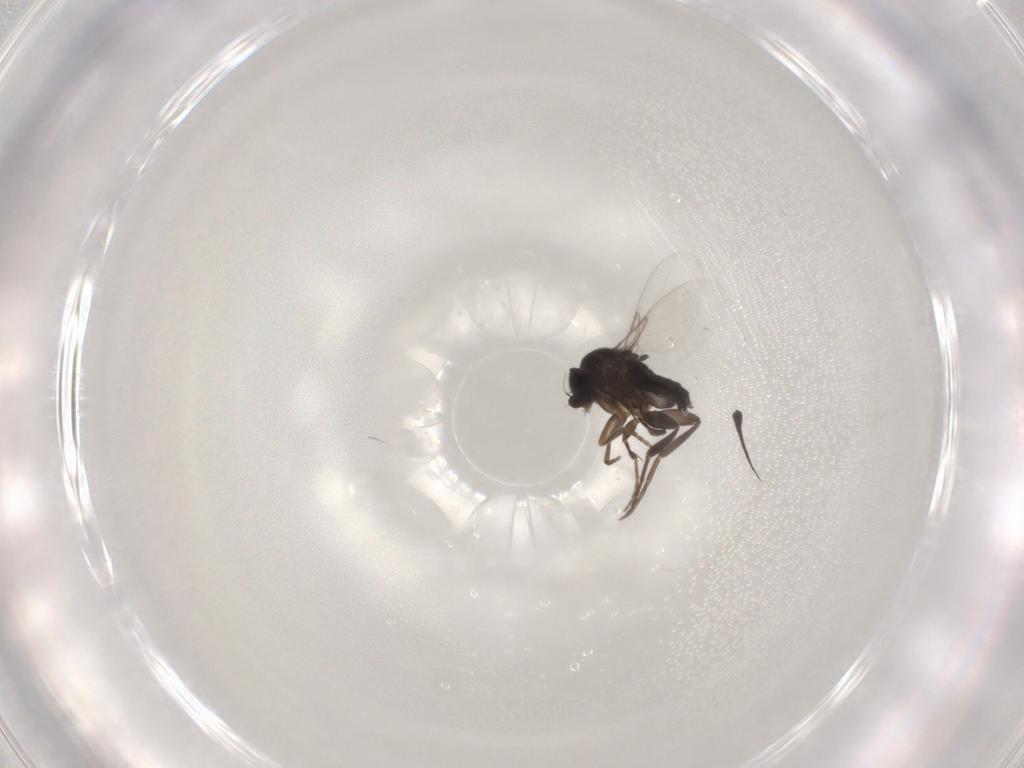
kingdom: Animalia
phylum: Arthropoda
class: Insecta
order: Diptera
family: Phoridae
